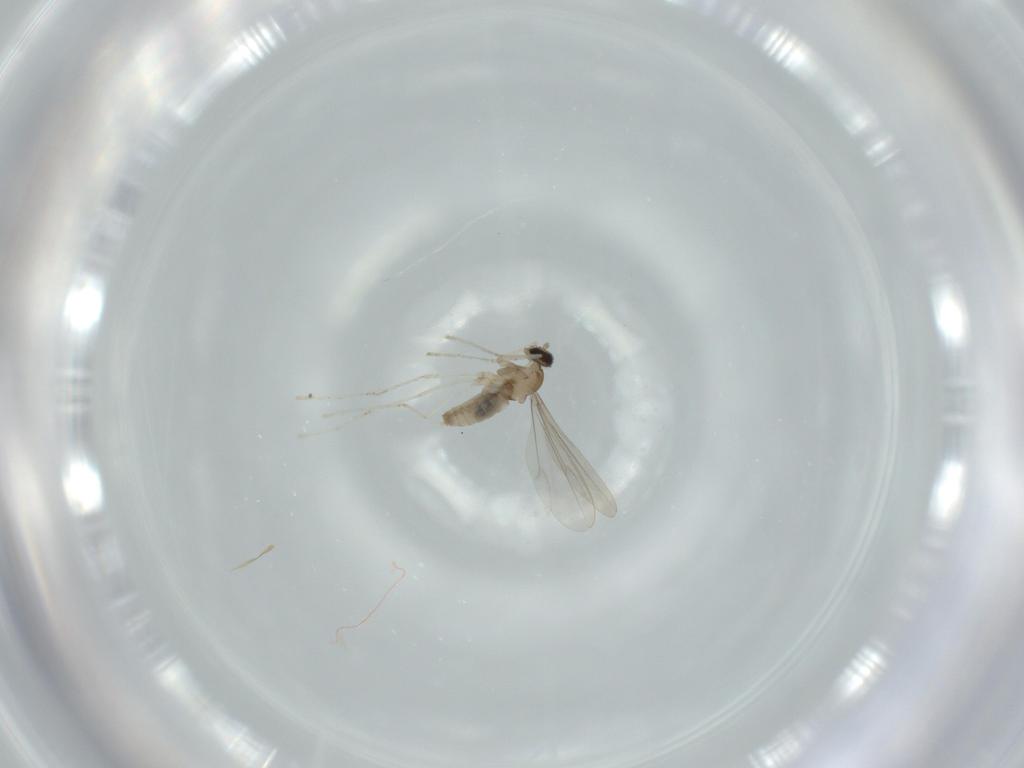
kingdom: Animalia
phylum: Arthropoda
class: Insecta
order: Diptera
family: Cecidomyiidae
